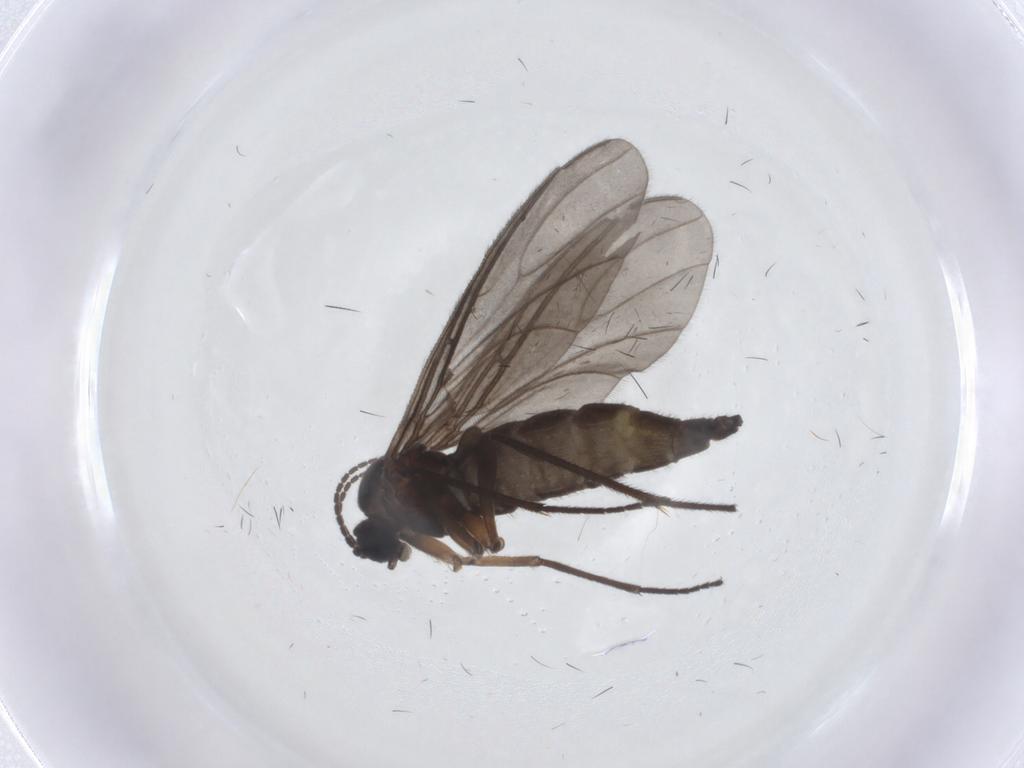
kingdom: Animalia
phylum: Arthropoda
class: Insecta
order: Diptera
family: Sciaridae
